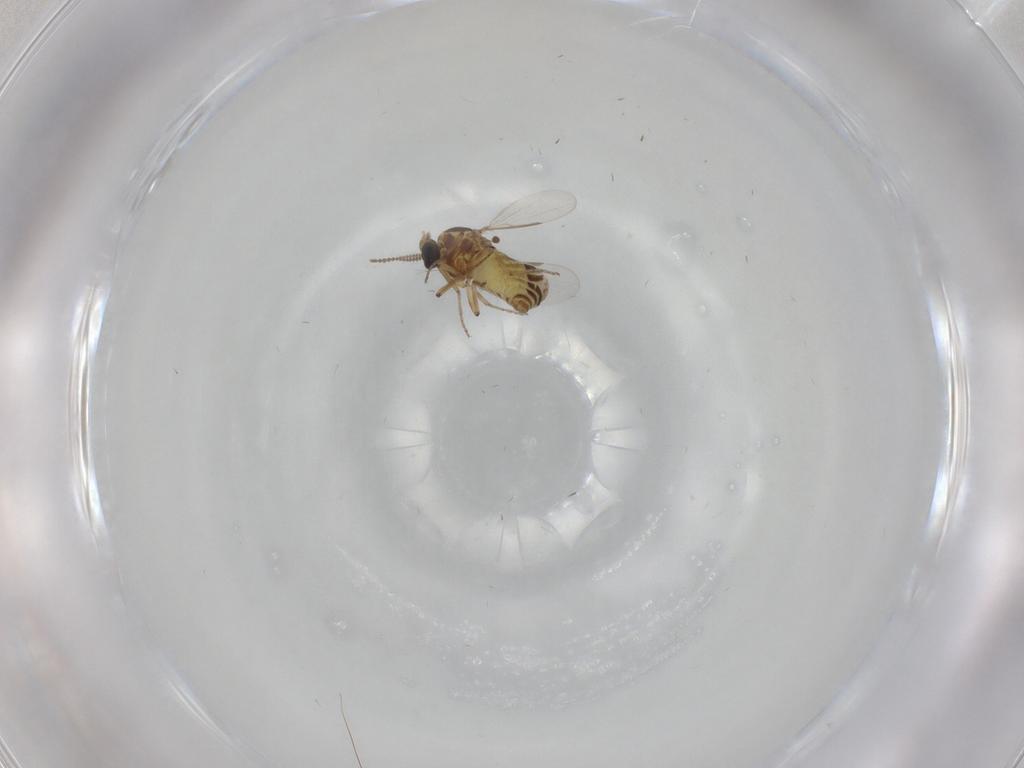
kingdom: Animalia
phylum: Arthropoda
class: Insecta
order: Diptera
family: Ceratopogonidae
